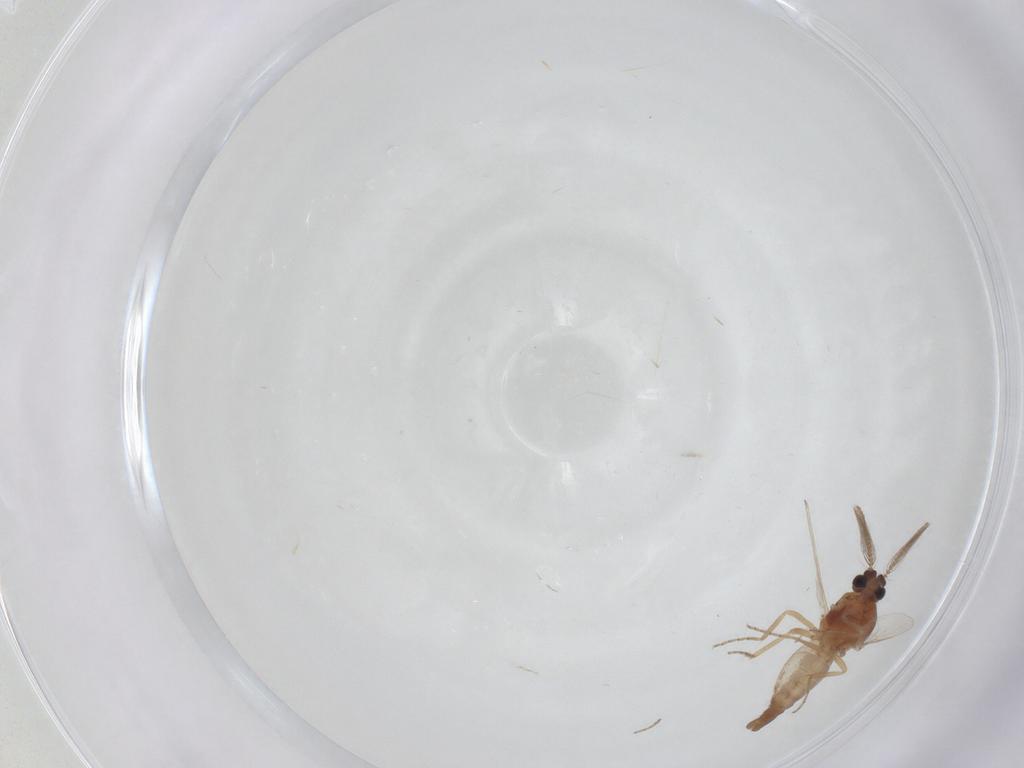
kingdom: Animalia
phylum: Arthropoda
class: Insecta
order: Diptera
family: Ceratopogonidae
